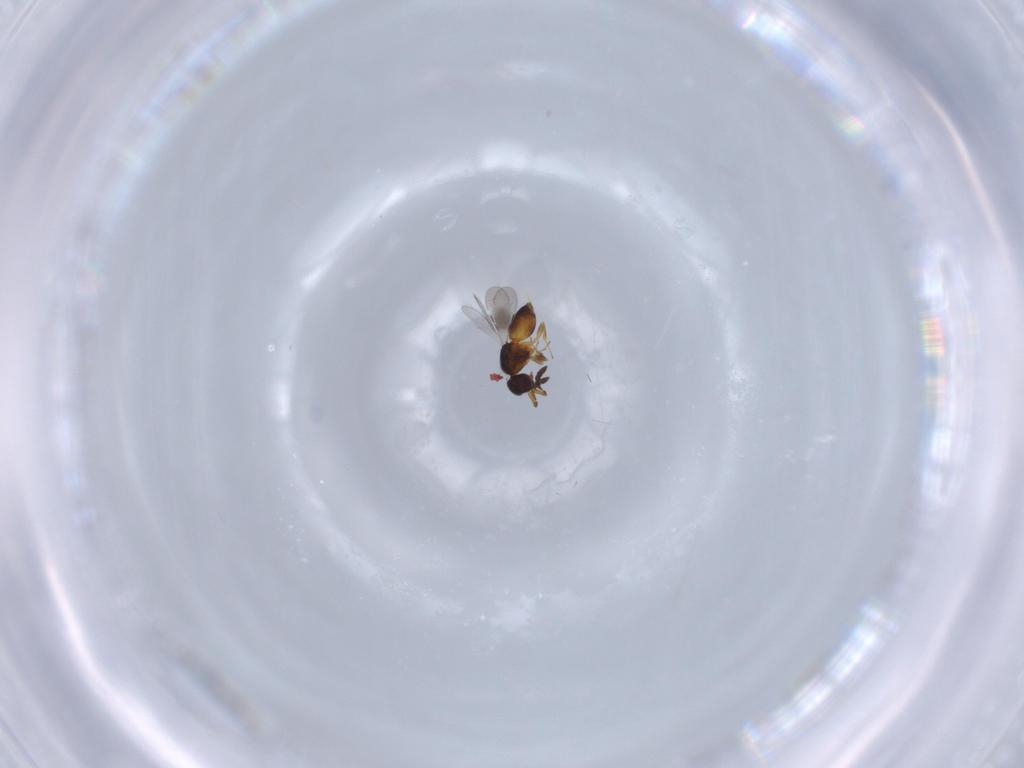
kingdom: Animalia
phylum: Arthropoda
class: Insecta
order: Hymenoptera
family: Ceraphronidae
